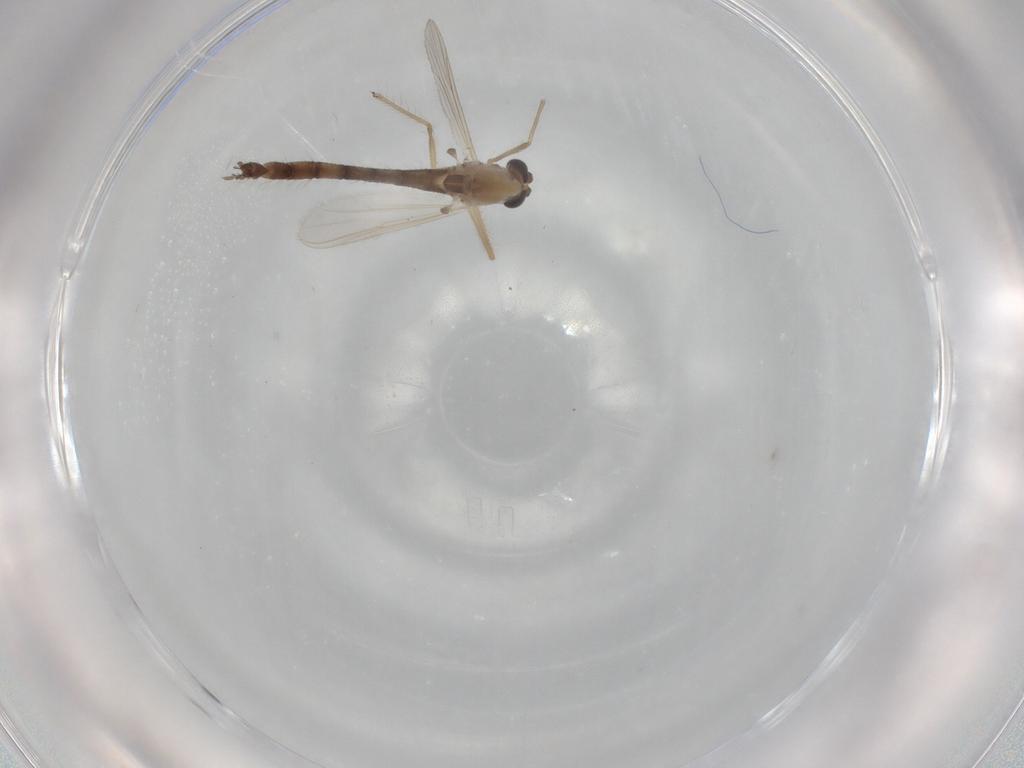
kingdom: Animalia
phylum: Arthropoda
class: Insecta
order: Diptera
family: Chironomidae
